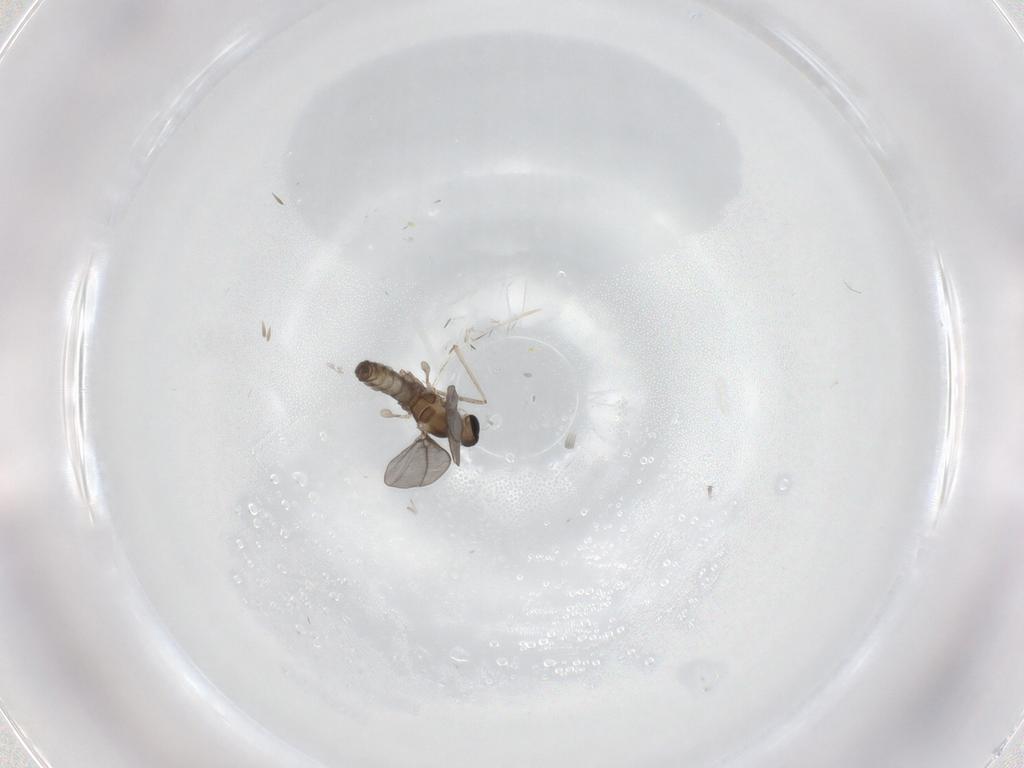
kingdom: Animalia
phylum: Arthropoda
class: Insecta
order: Diptera
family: Cecidomyiidae
